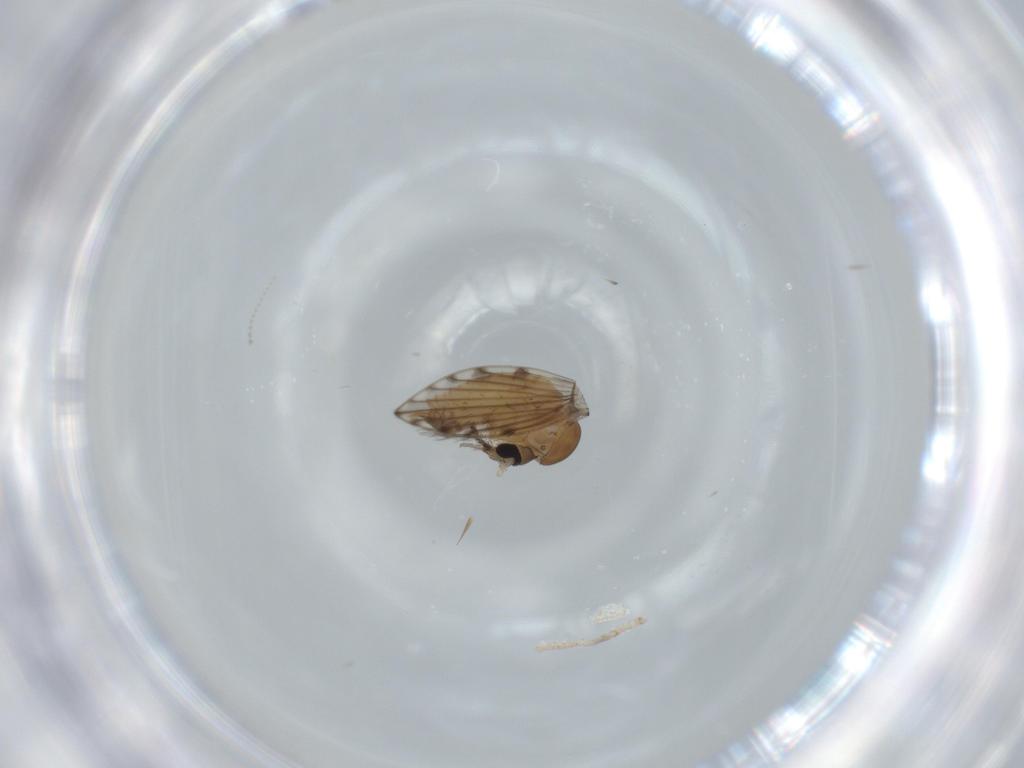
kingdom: Animalia
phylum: Arthropoda
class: Insecta
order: Diptera
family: Psychodidae
